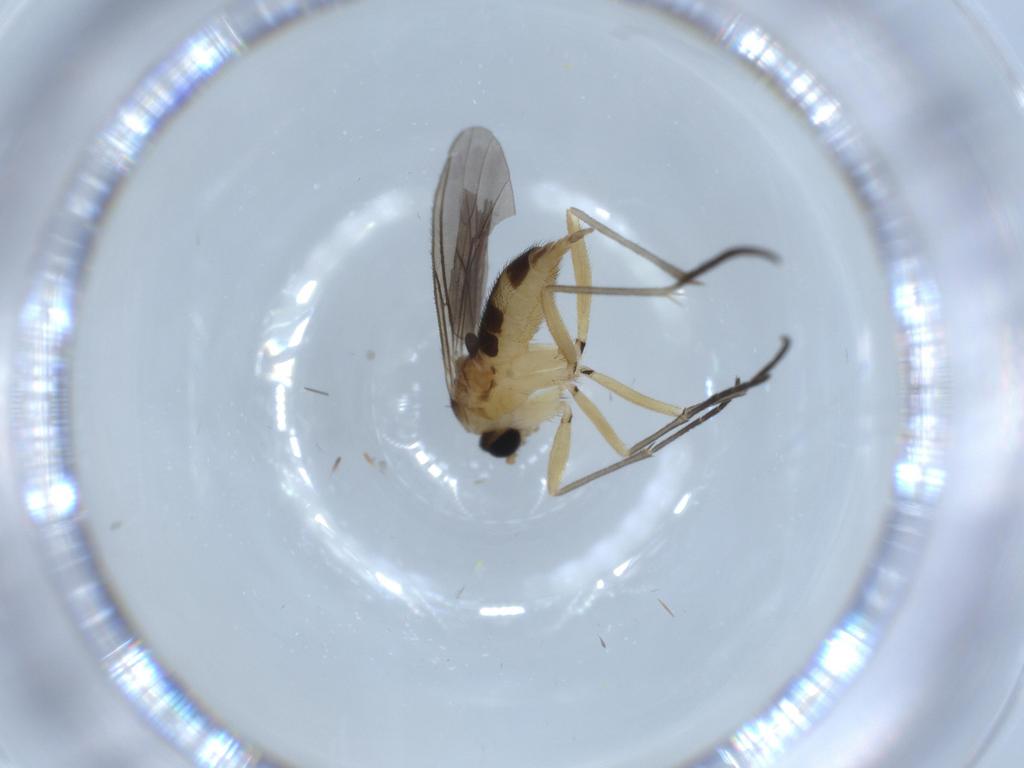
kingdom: Animalia
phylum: Arthropoda
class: Insecta
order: Diptera
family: Sciaridae
